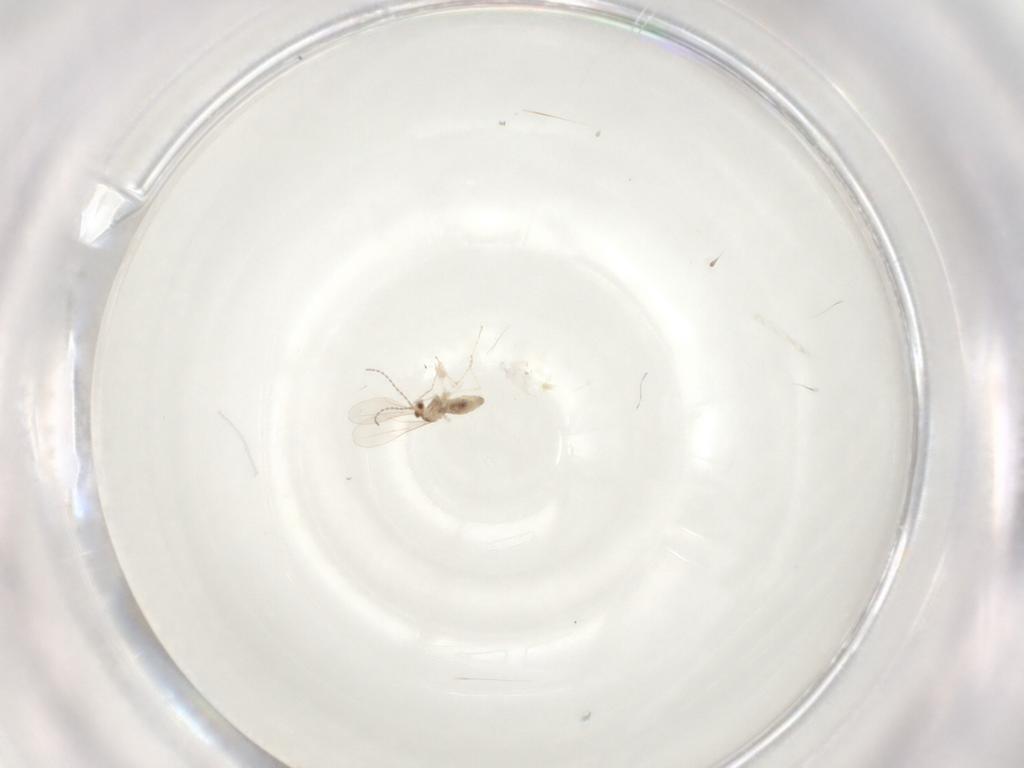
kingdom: Animalia
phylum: Arthropoda
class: Insecta
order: Diptera
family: Cecidomyiidae
